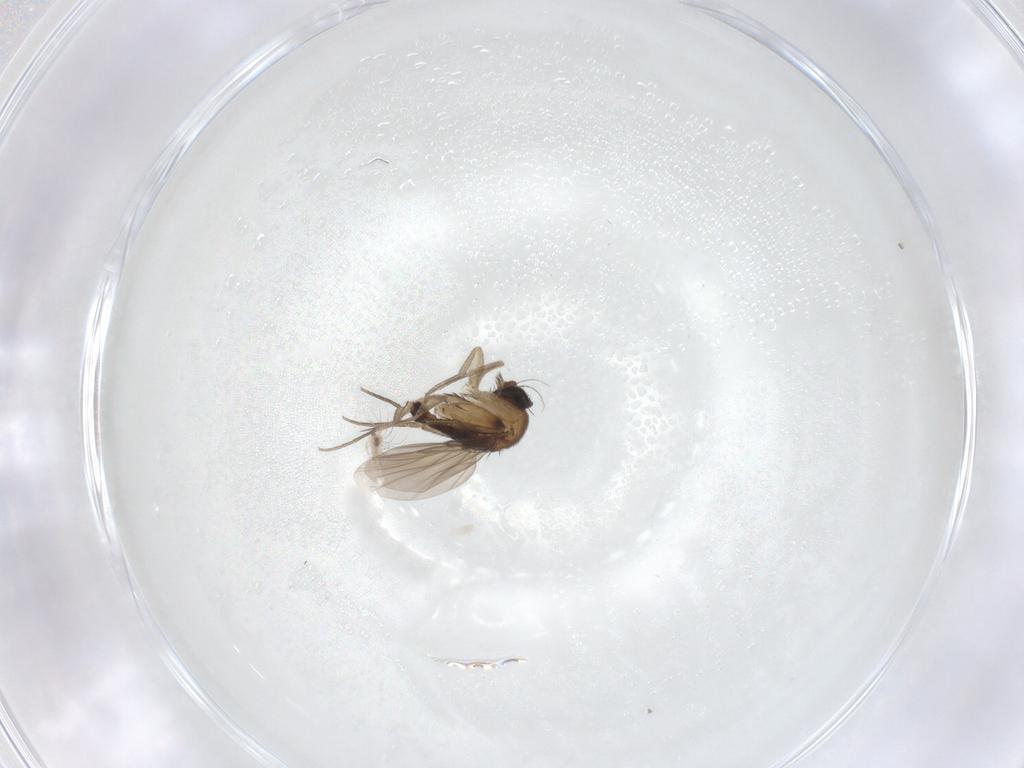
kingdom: Animalia
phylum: Arthropoda
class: Insecta
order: Diptera
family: Phoridae
